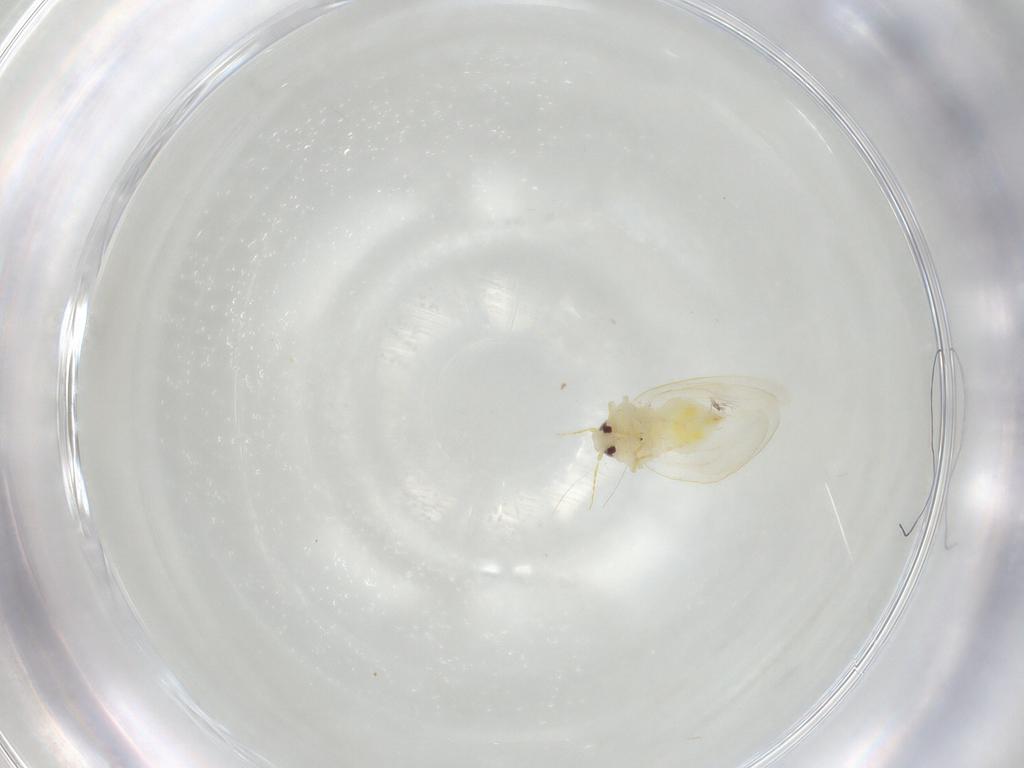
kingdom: Animalia
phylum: Arthropoda
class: Insecta
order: Hemiptera
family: Aleyrodidae
